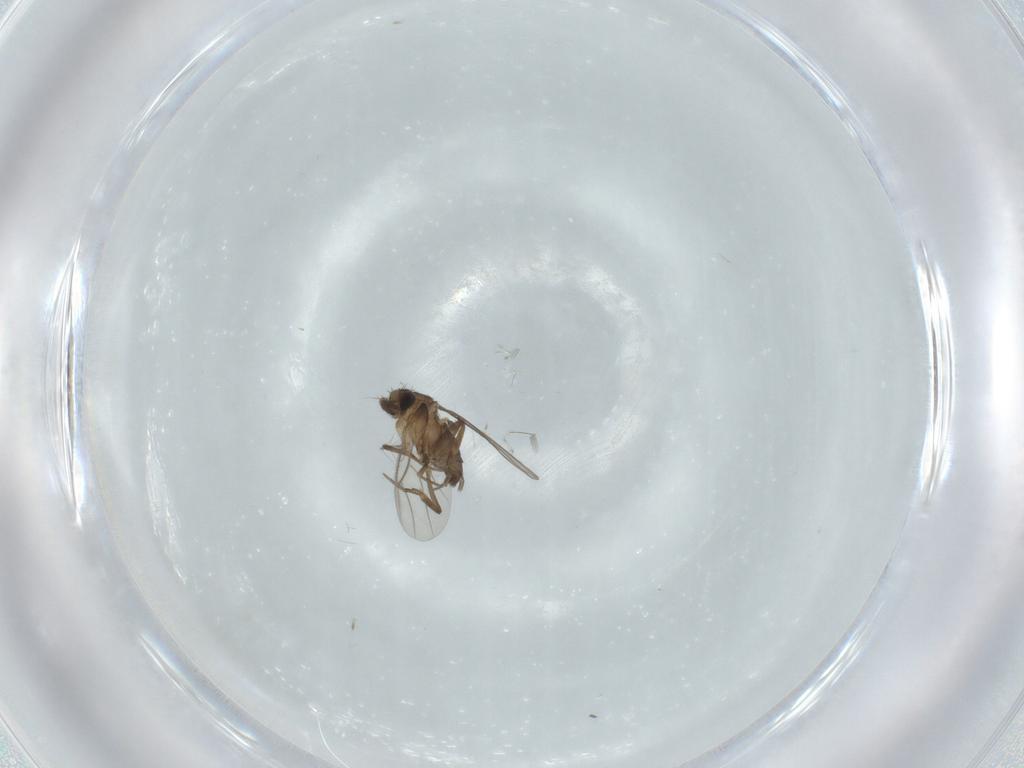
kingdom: Animalia
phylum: Arthropoda
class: Insecta
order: Diptera
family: Phoridae
